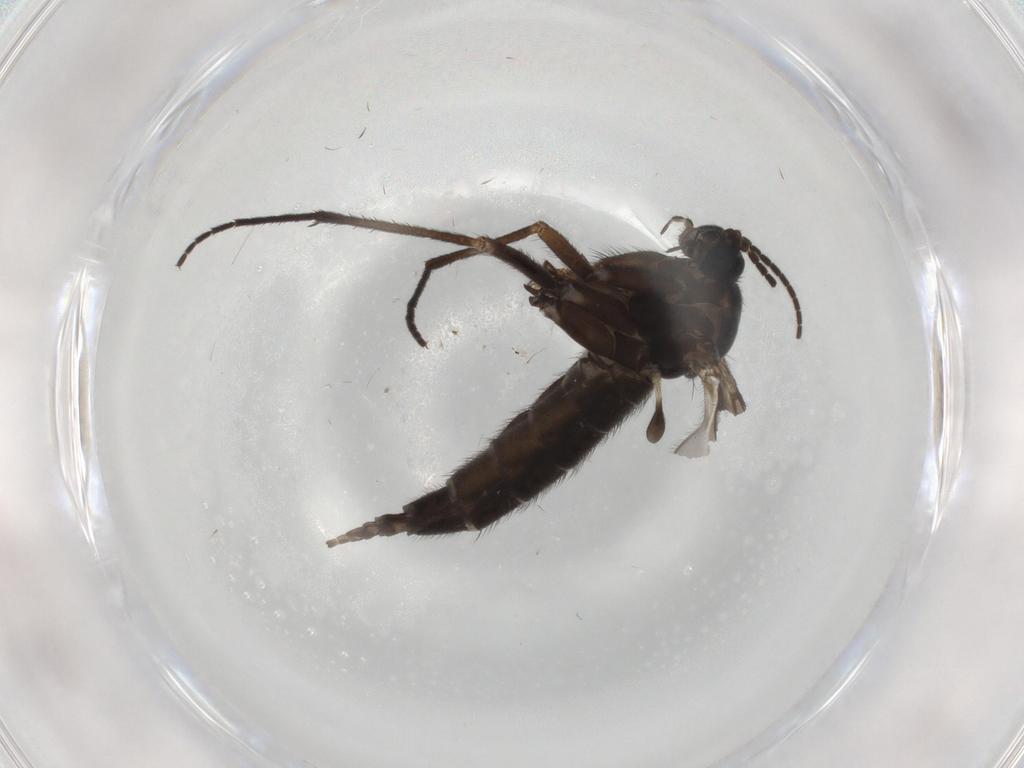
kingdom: Animalia
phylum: Arthropoda
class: Insecta
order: Diptera
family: Sciaridae
